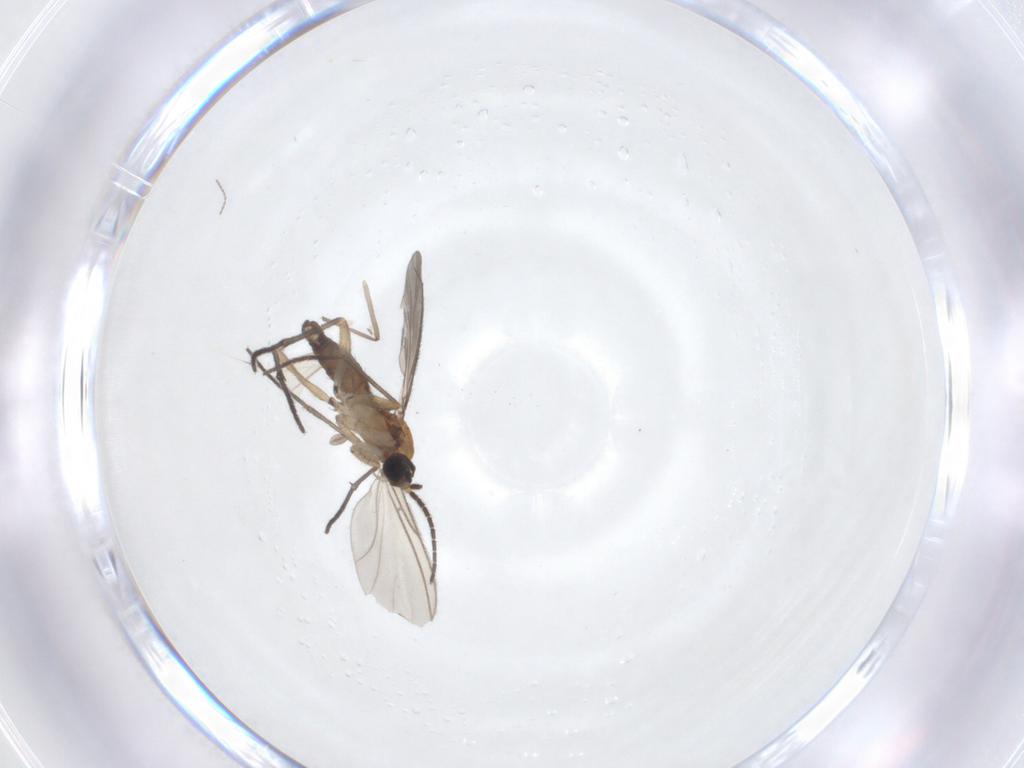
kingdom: Animalia
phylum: Arthropoda
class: Insecta
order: Diptera
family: Sciaridae
